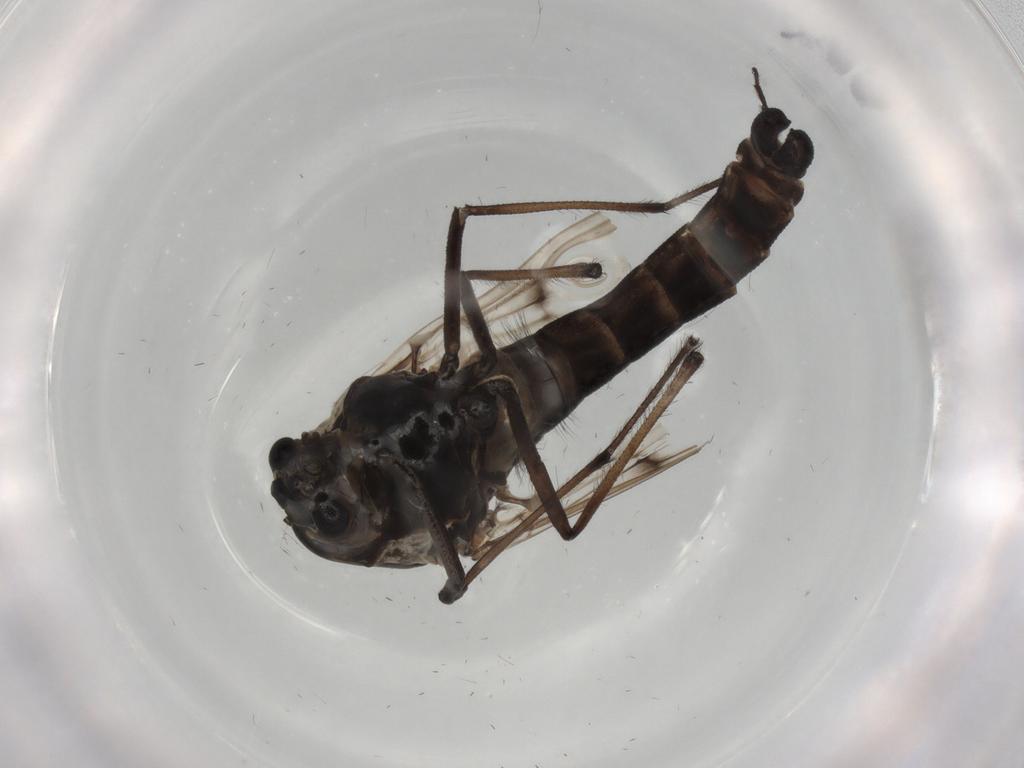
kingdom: Animalia
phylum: Arthropoda
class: Insecta
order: Diptera
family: Chironomidae
